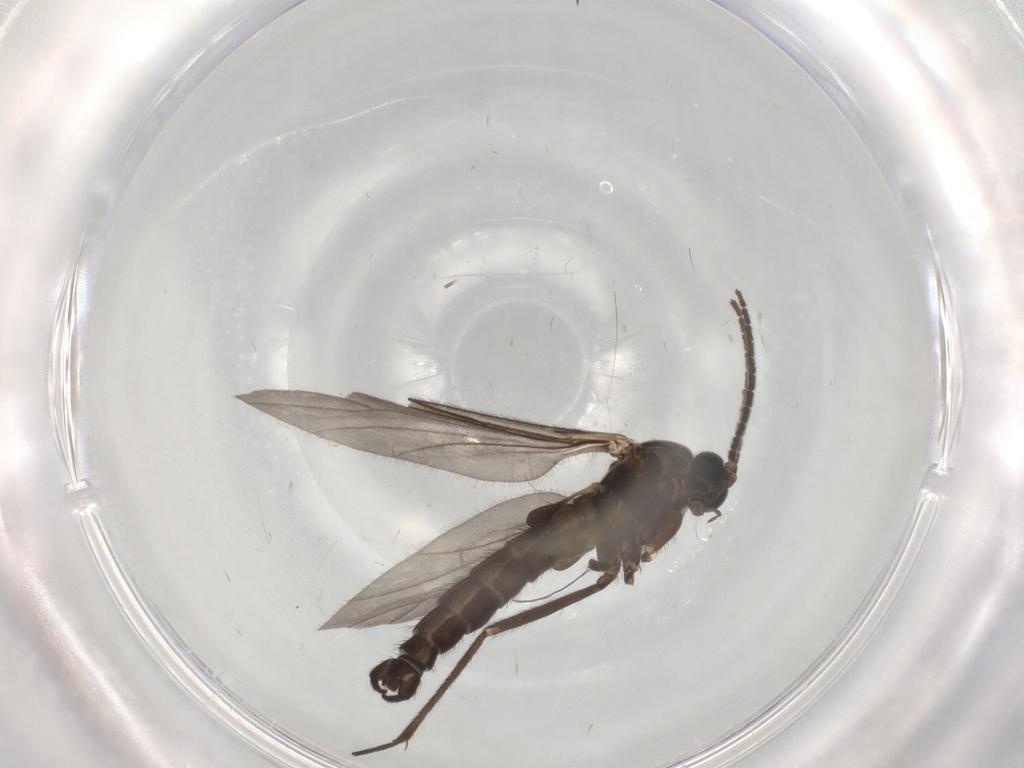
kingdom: Animalia
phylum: Arthropoda
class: Insecta
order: Diptera
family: Sciaridae
